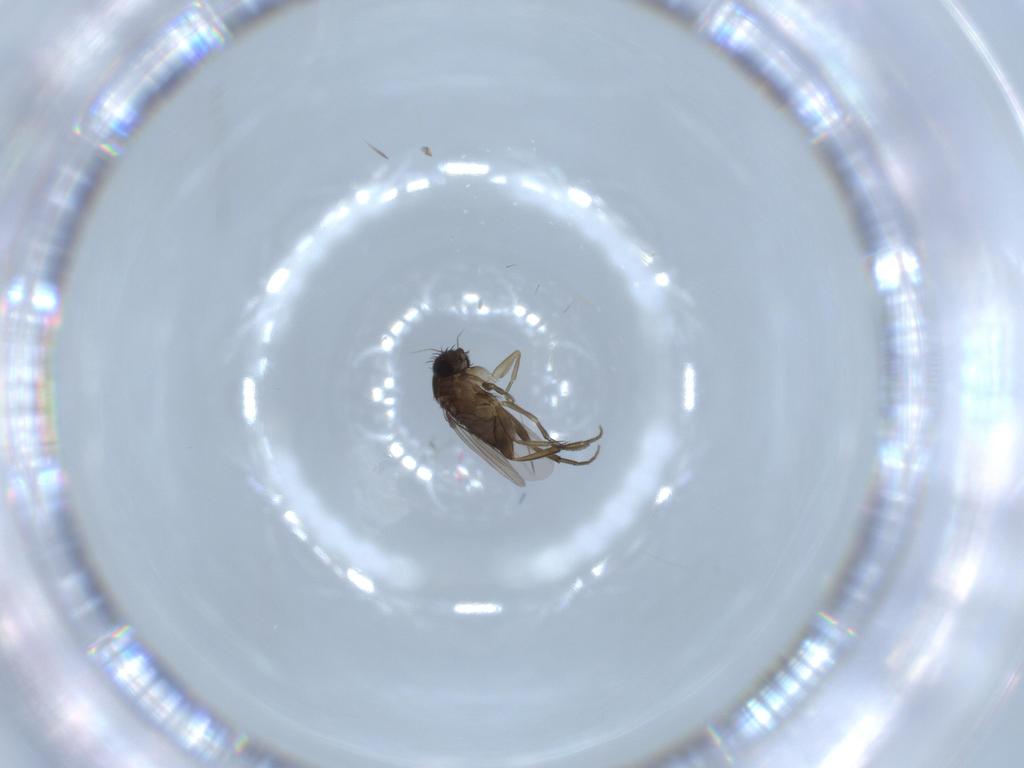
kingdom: Animalia
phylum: Arthropoda
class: Insecta
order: Diptera
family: Phoridae
